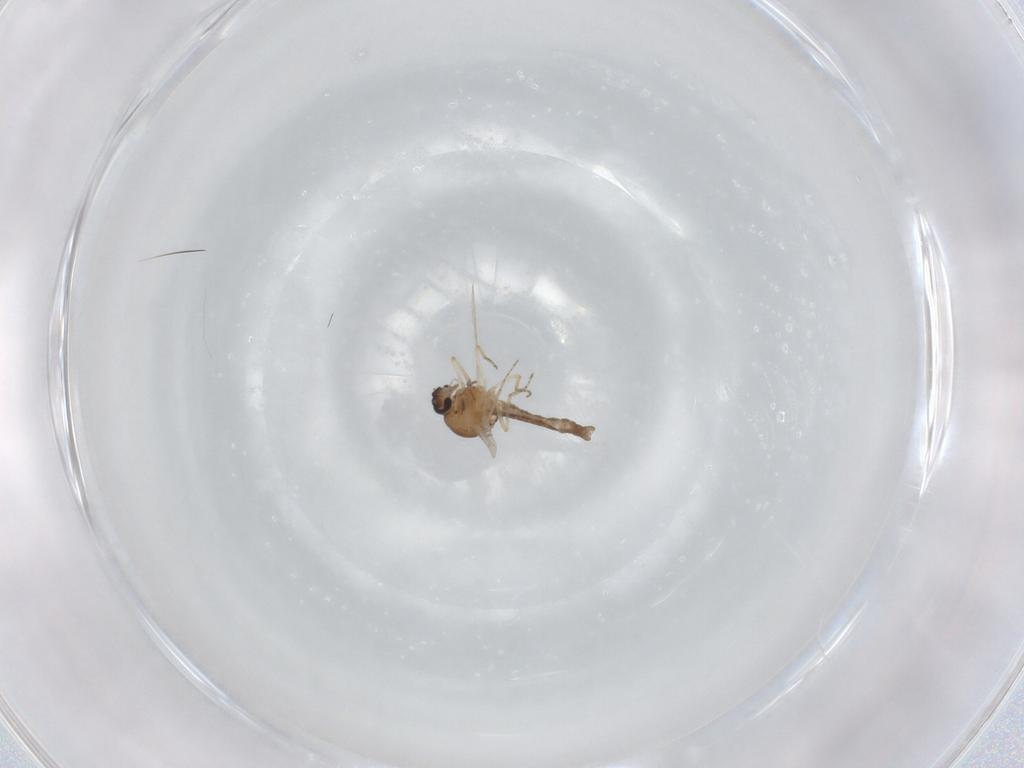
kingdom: Animalia
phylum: Arthropoda
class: Insecta
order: Diptera
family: Ceratopogonidae
